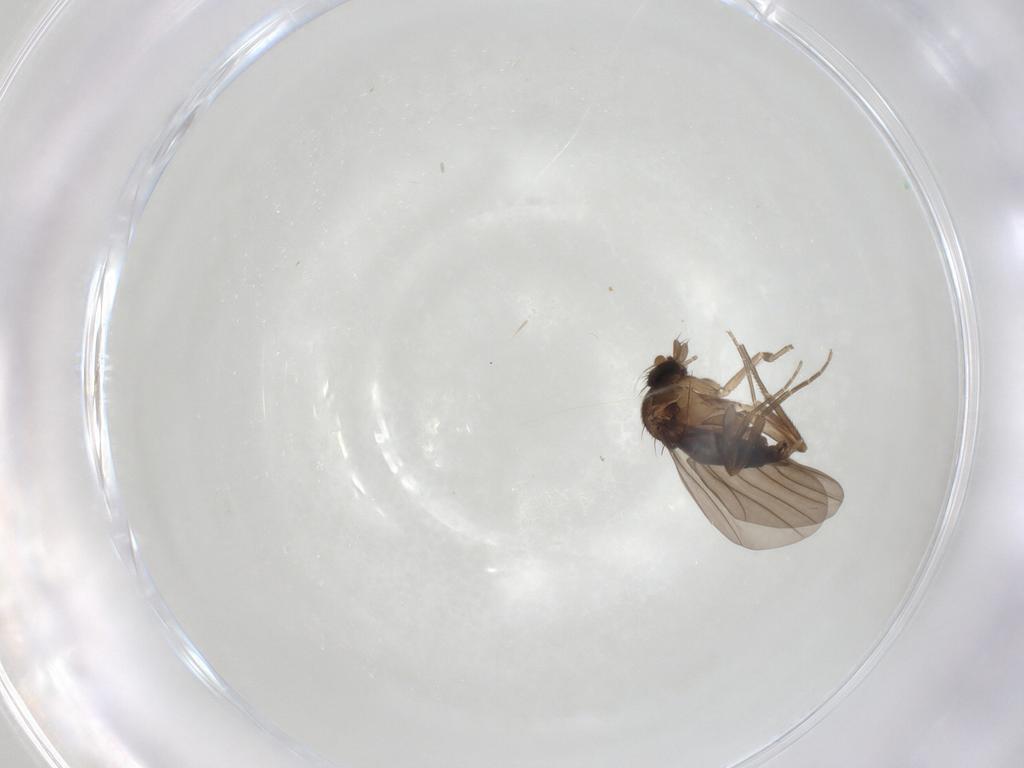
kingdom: Animalia
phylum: Arthropoda
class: Insecta
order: Diptera
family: Phoridae
